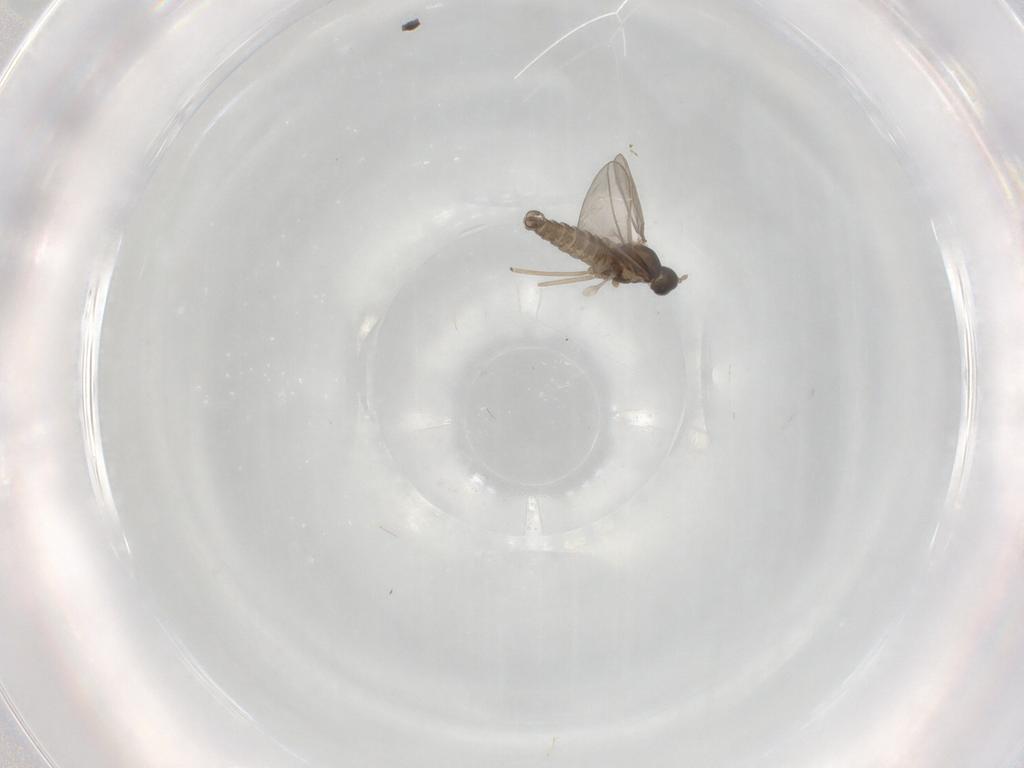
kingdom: Animalia
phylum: Arthropoda
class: Insecta
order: Diptera
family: Cecidomyiidae
